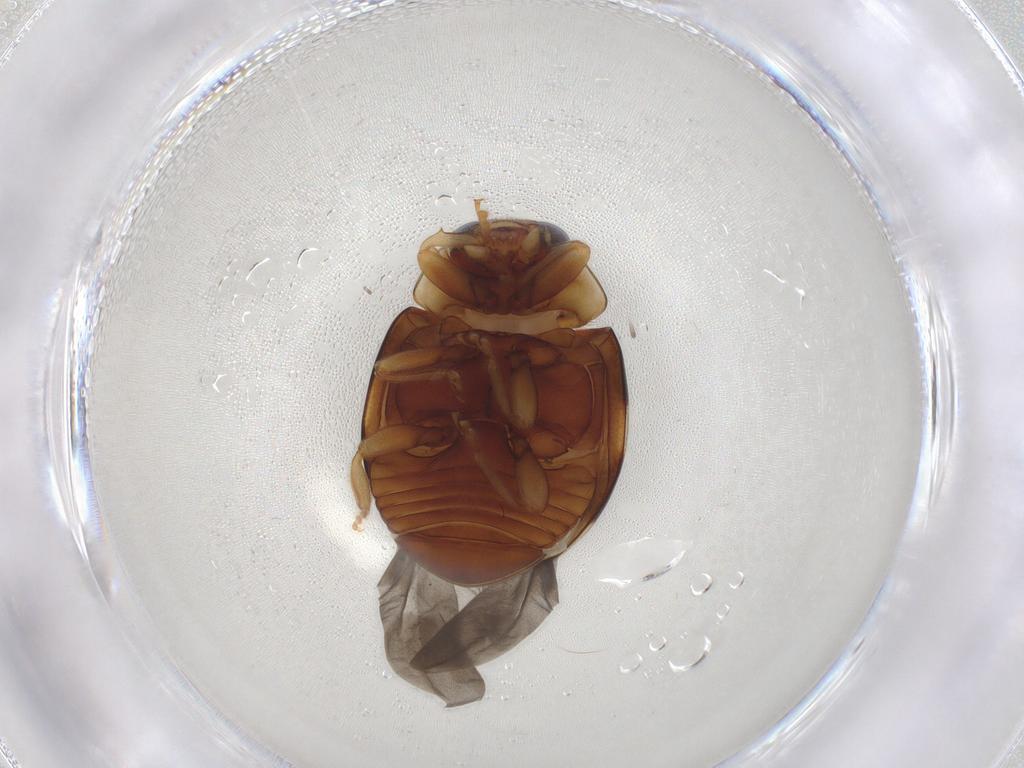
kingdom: Animalia
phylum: Arthropoda
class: Insecta
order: Coleoptera
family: Coccinellidae
